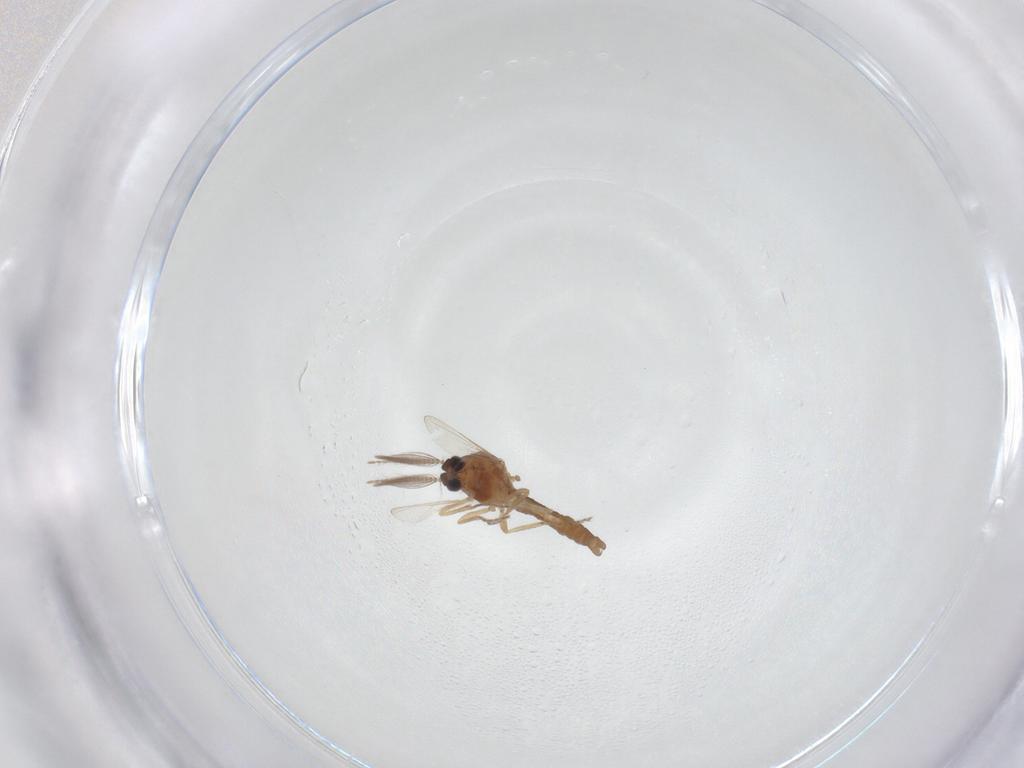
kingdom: Animalia
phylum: Arthropoda
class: Insecta
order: Diptera
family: Ceratopogonidae
